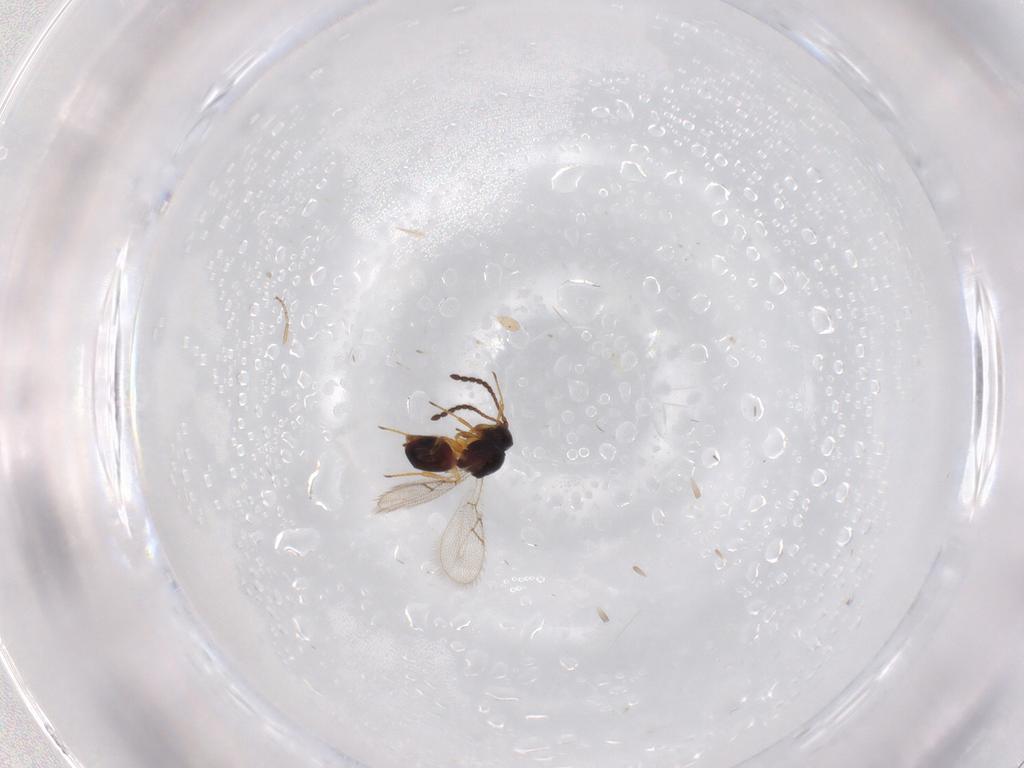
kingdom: Animalia
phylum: Arthropoda
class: Insecta
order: Hymenoptera
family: Figitidae
